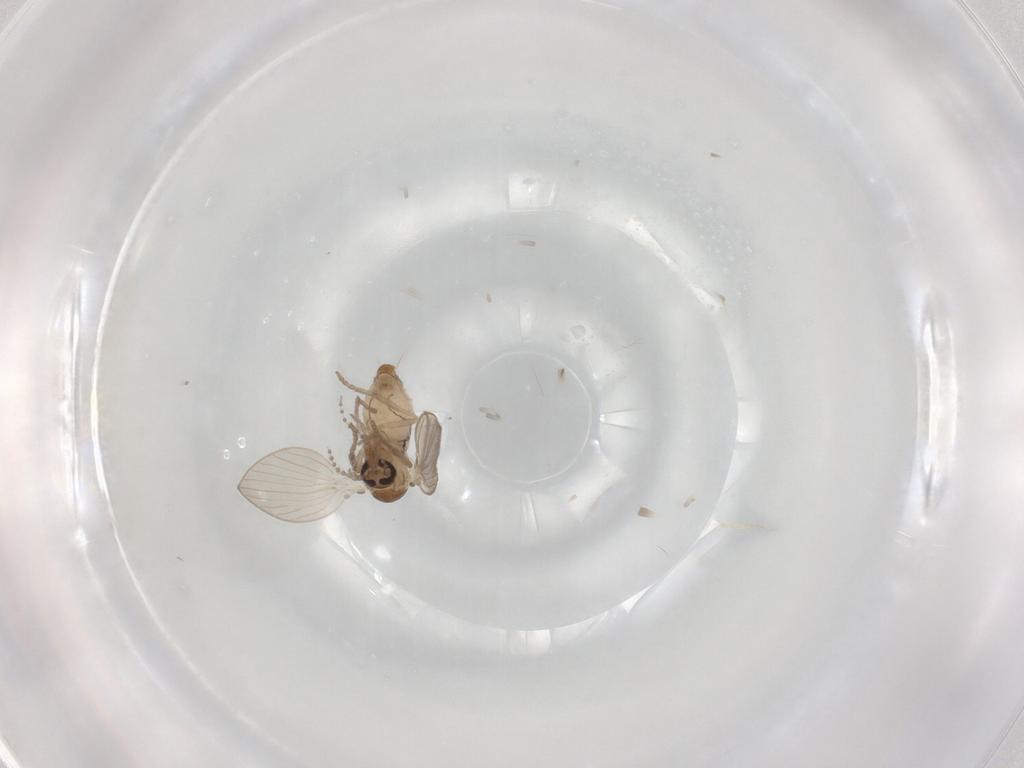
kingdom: Animalia
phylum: Arthropoda
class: Insecta
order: Diptera
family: Psychodidae
